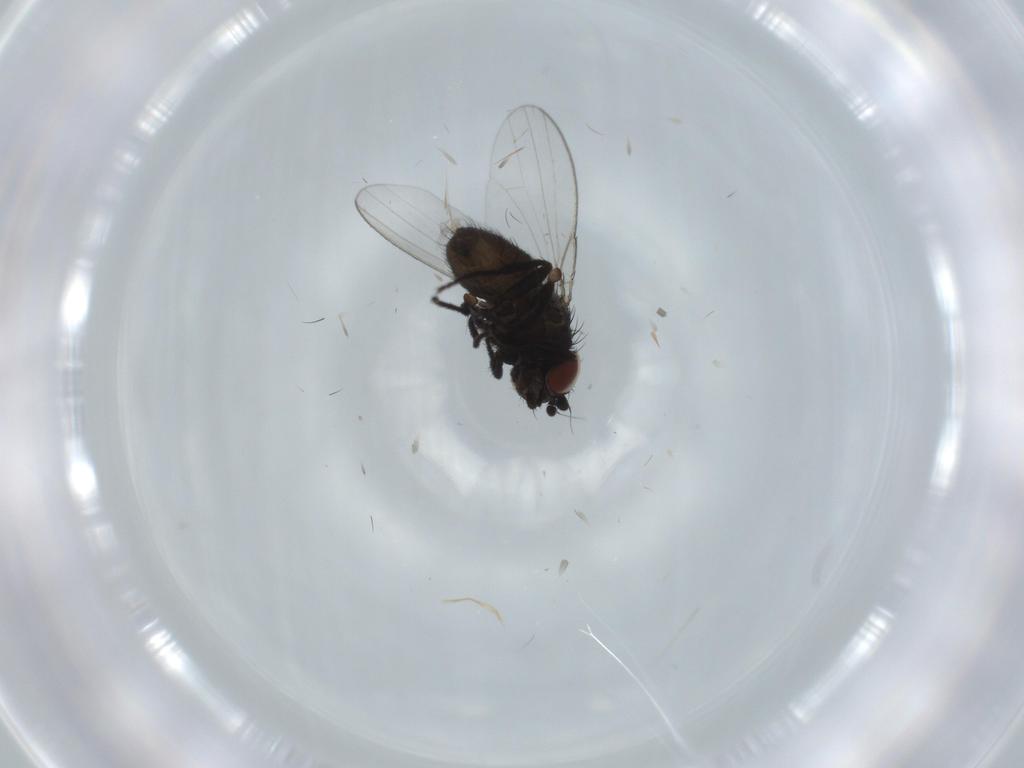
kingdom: Animalia
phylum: Arthropoda
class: Insecta
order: Diptera
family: Milichiidae
